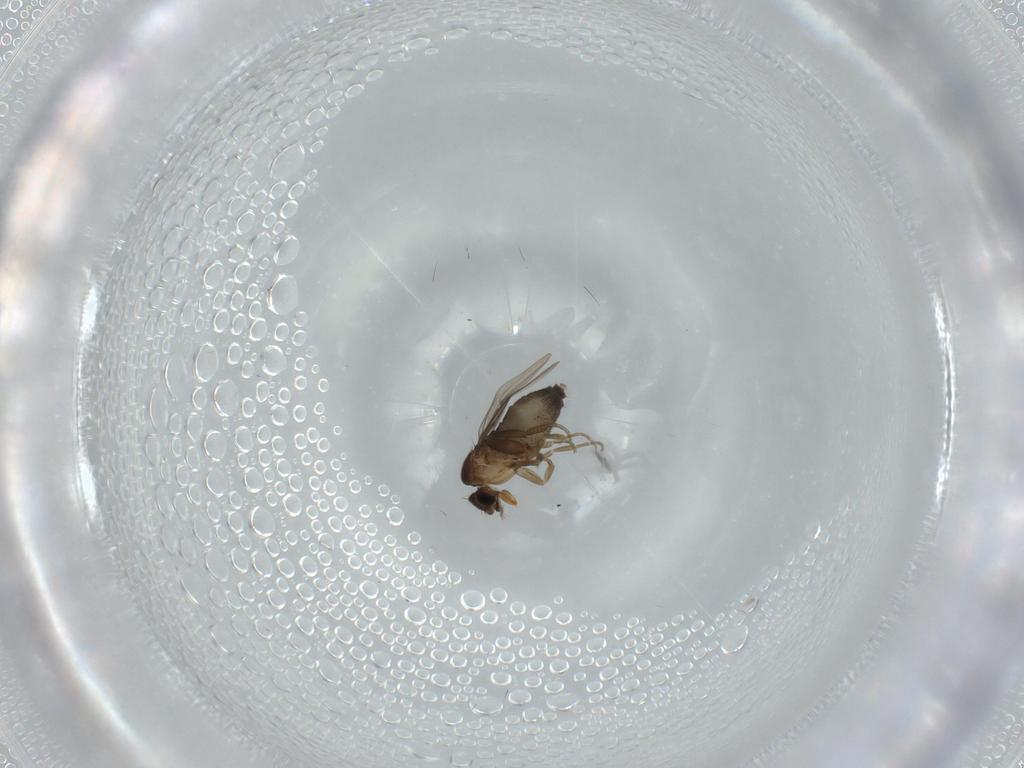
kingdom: Animalia
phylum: Arthropoda
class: Insecta
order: Diptera
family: Phoridae
